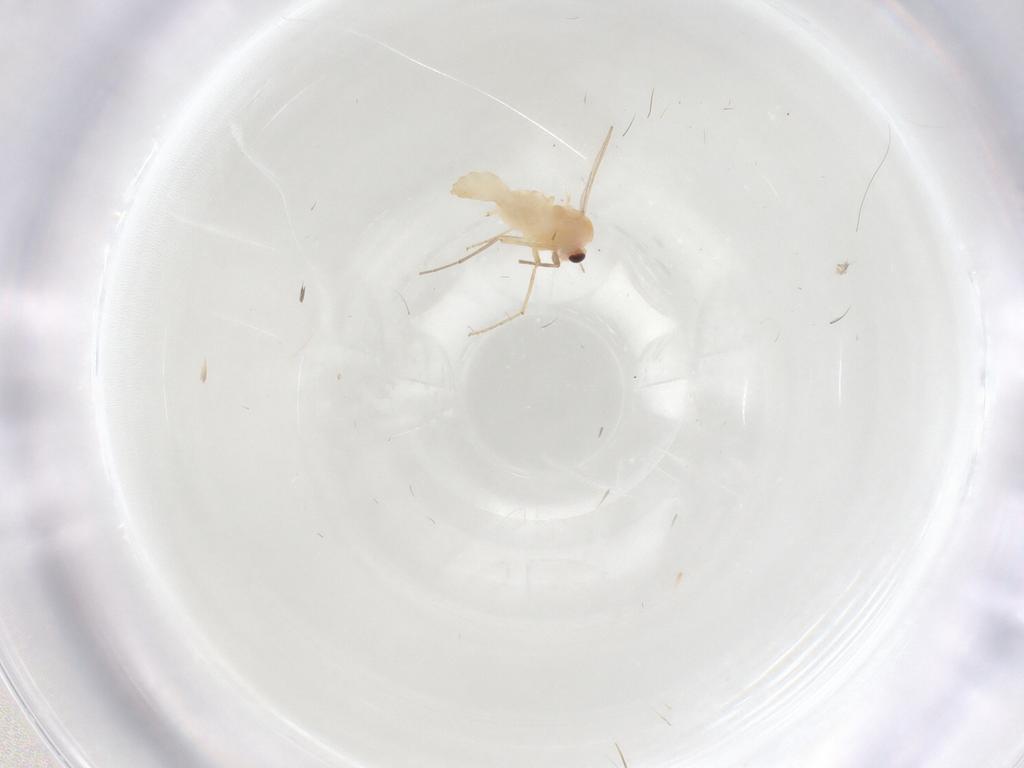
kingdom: Animalia
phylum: Arthropoda
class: Insecta
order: Diptera
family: Chironomidae
